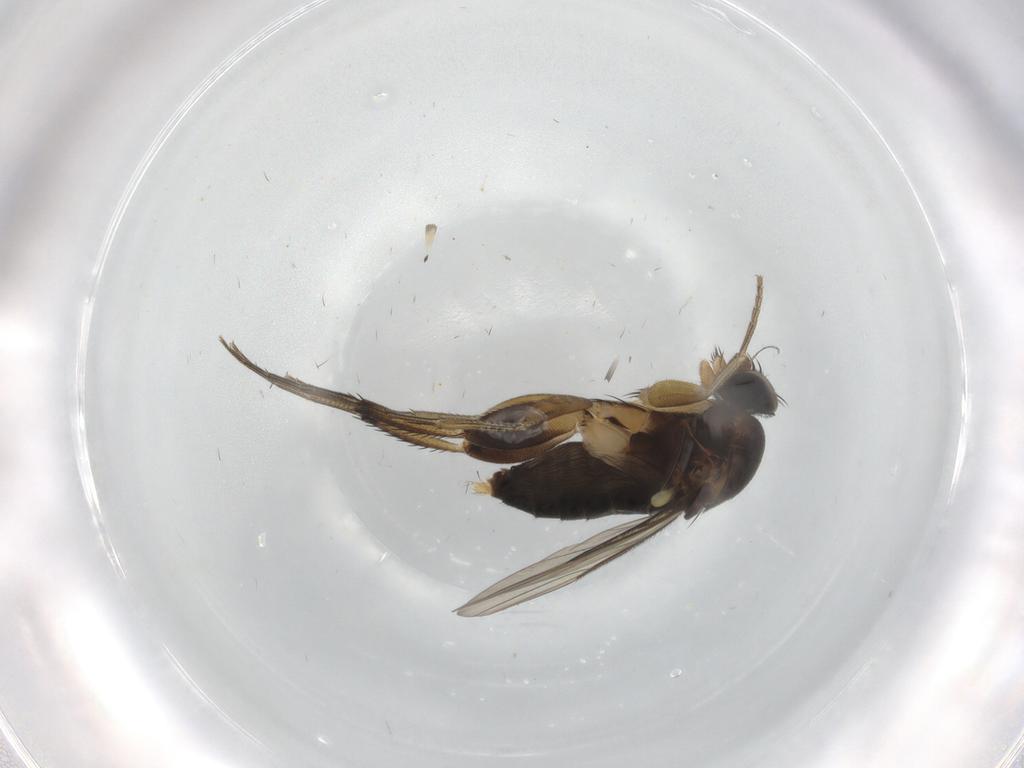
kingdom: Animalia
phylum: Arthropoda
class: Insecta
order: Diptera
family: Phoridae
